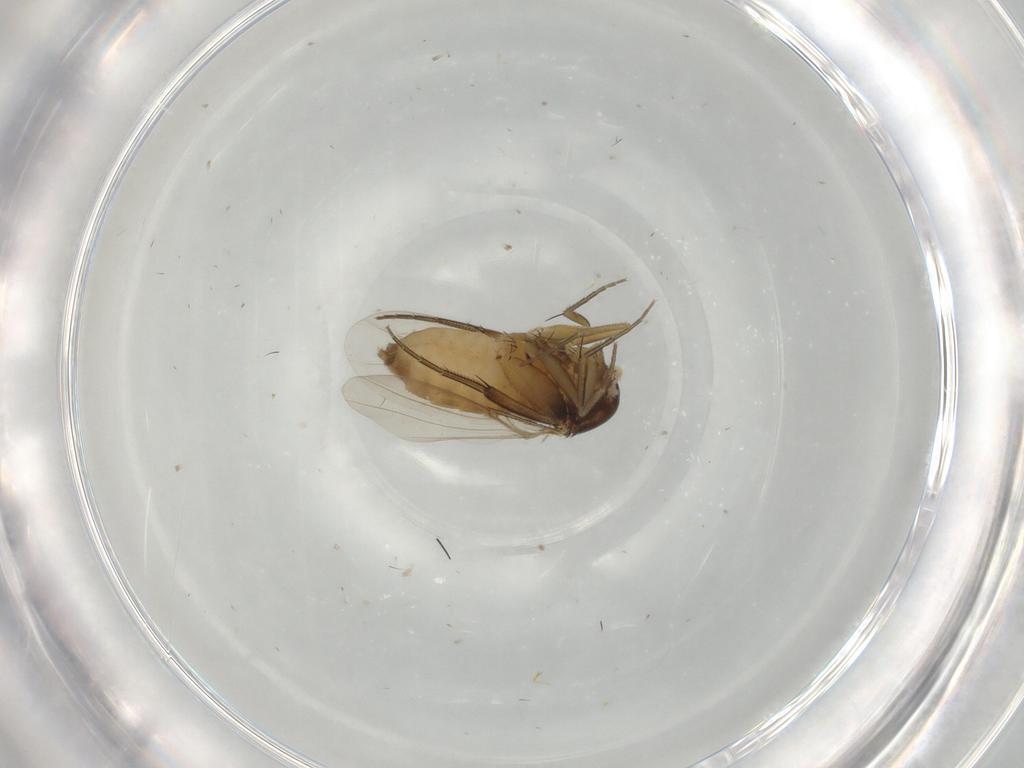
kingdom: Animalia
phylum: Arthropoda
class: Insecta
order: Diptera
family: Phoridae
